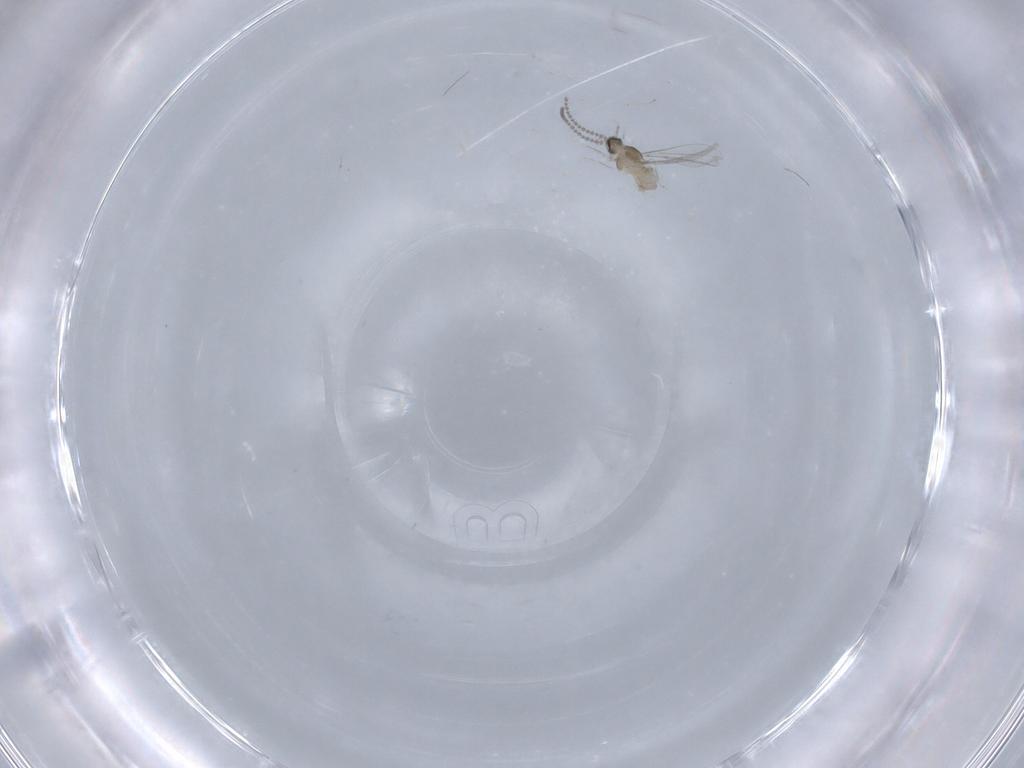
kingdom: Animalia
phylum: Arthropoda
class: Insecta
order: Diptera
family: Cecidomyiidae
